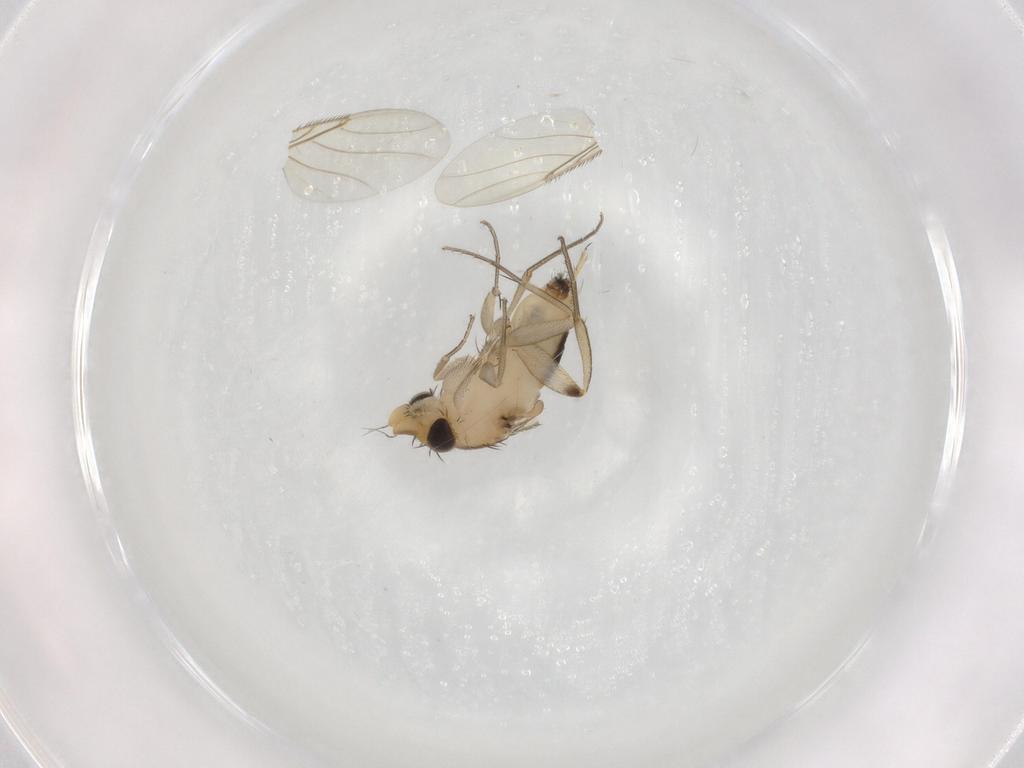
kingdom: Animalia
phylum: Arthropoda
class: Insecta
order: Diptera
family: Phoridae
